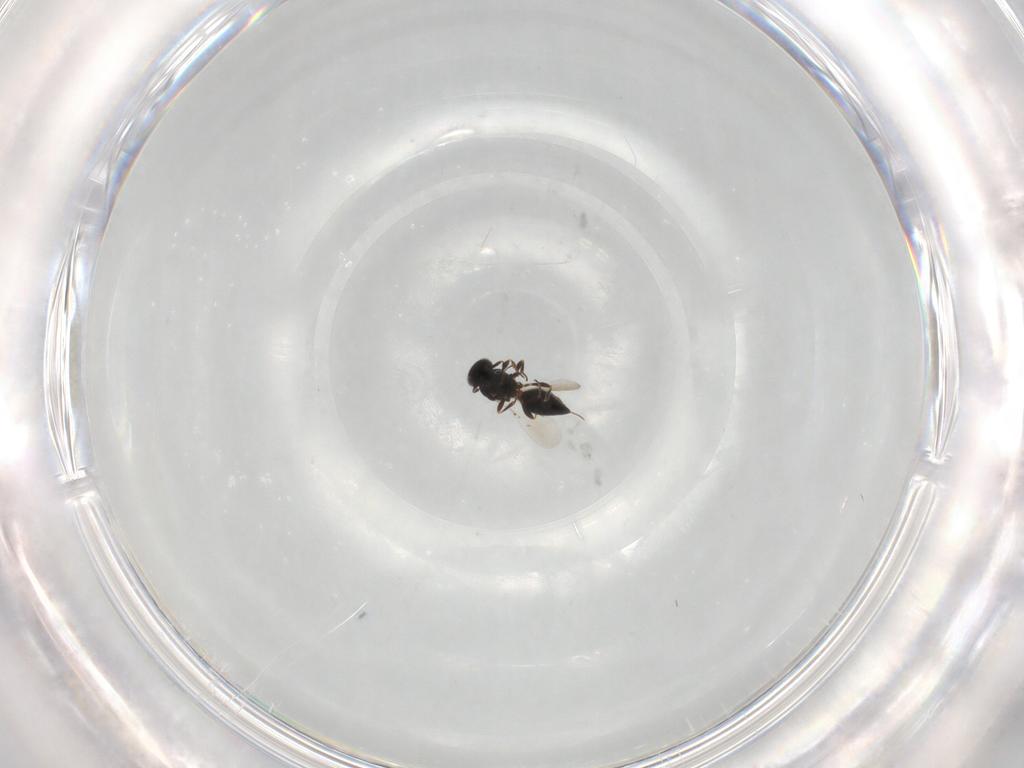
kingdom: Animalia
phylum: Arthropoda
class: Insecta
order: Hymenoptera
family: Platygastridae
